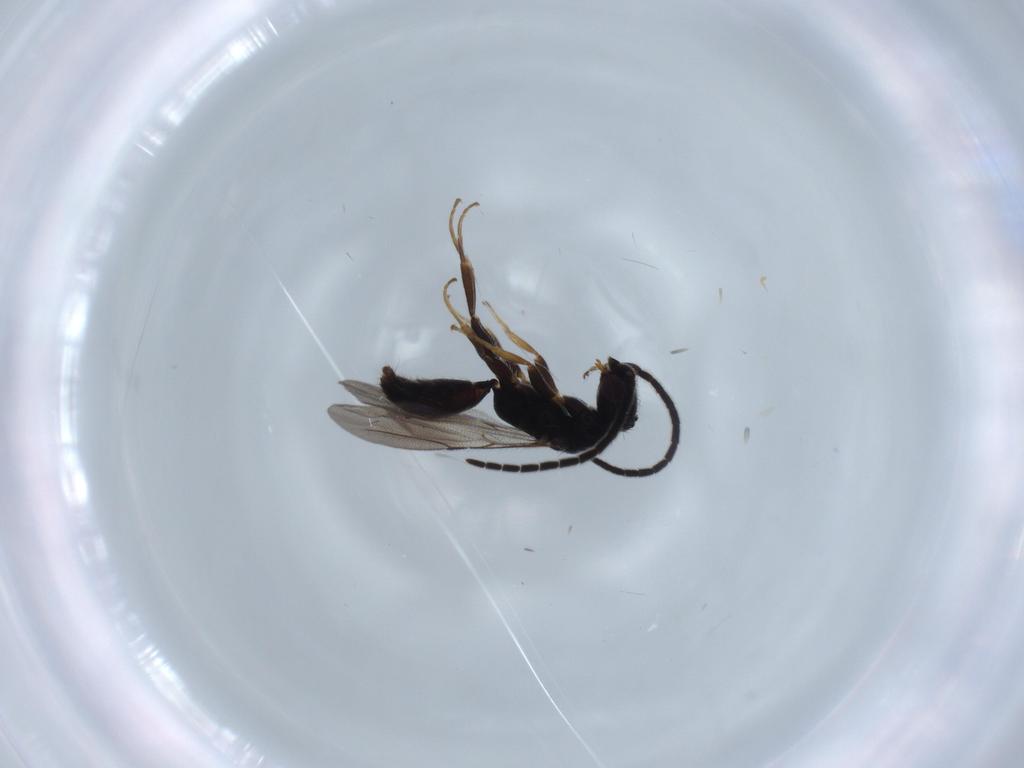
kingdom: Animalia
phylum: Arthropoda
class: Insecta
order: Hymenoptera
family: Bethylidae
